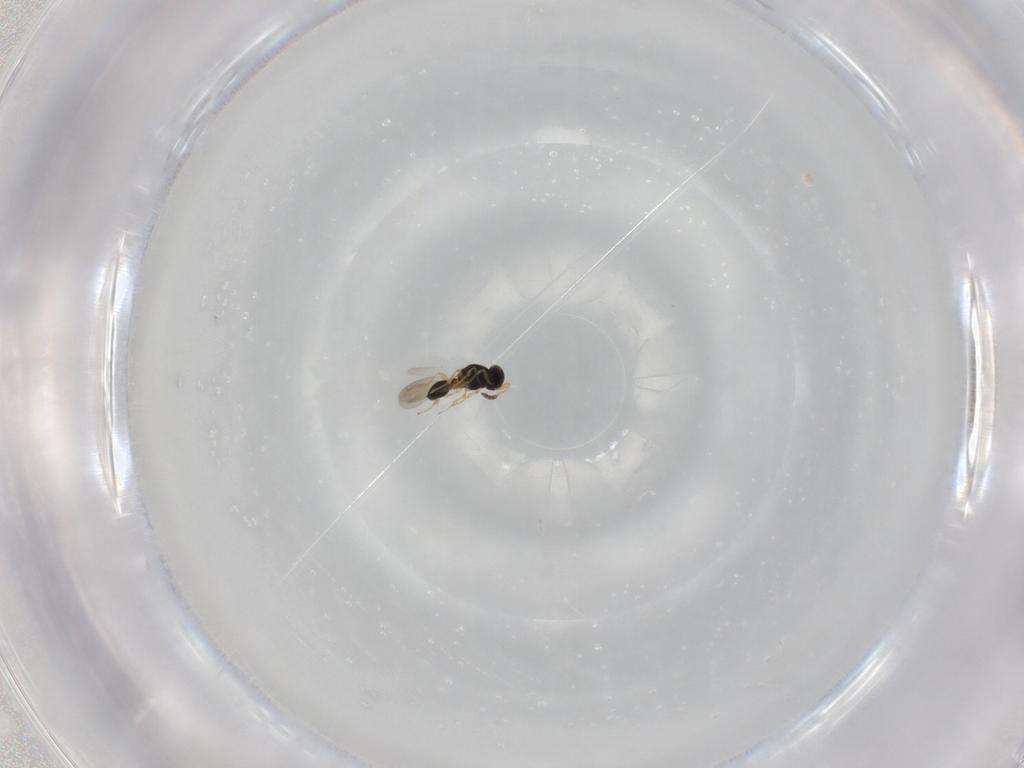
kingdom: Animalia
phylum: Arthropoda
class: Insecta
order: Hymenoptera
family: Platygastridae
